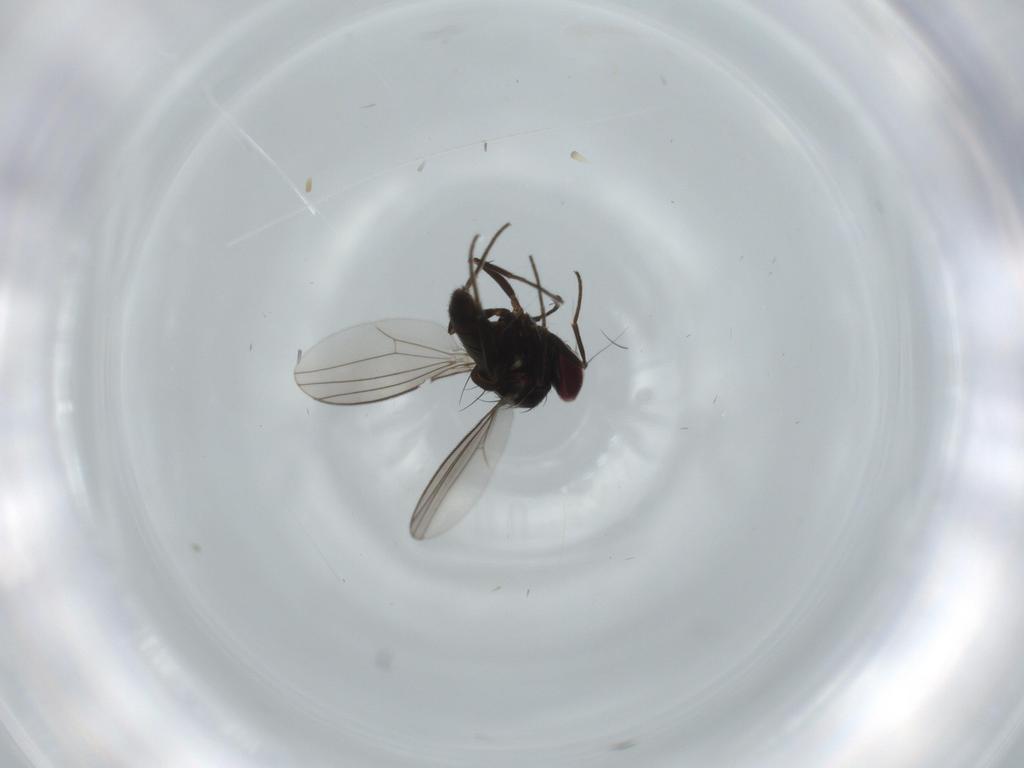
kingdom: Animalia
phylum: Arthropoda
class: Insecta
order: Diptera
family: Dolichopodidae
